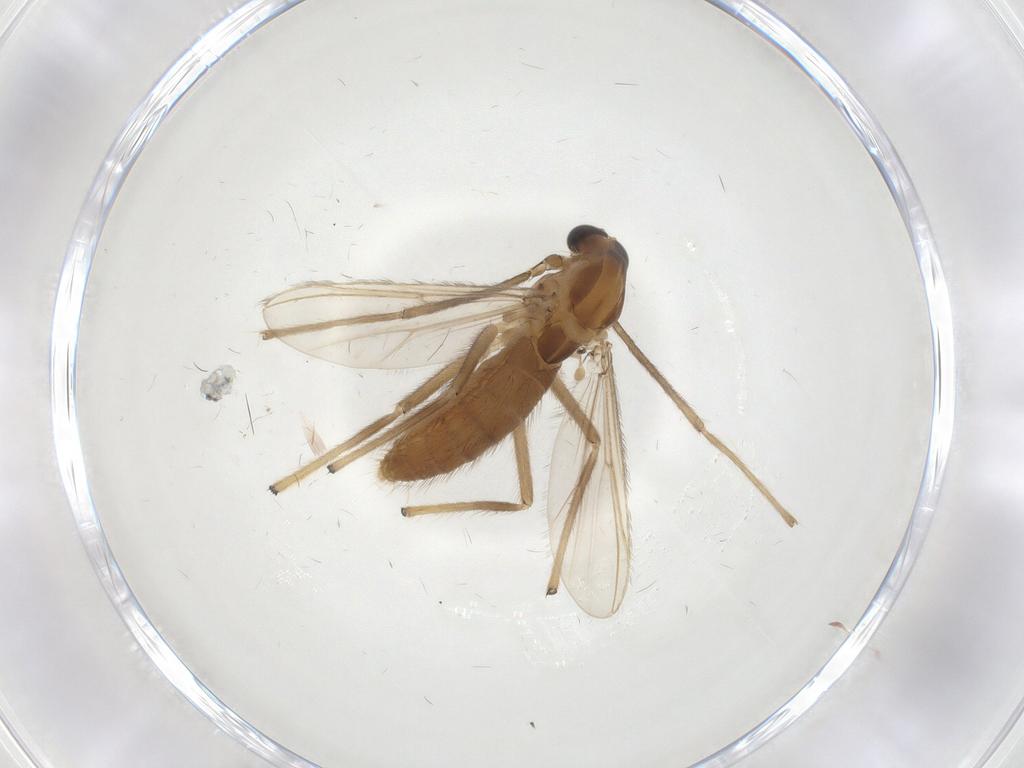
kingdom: Animalia
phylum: Arthropoda
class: Insecta
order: Diptera
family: Chironomidae
